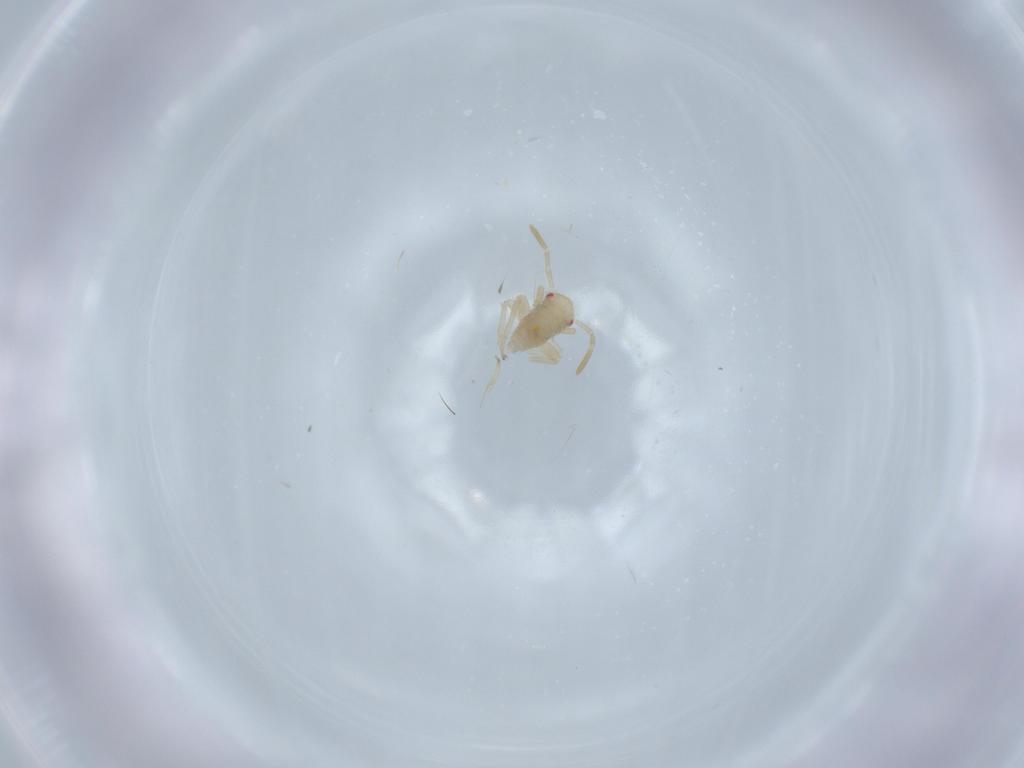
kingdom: Animalia
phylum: Arthropoda
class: Insecta
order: Hemiptera
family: Miridae
